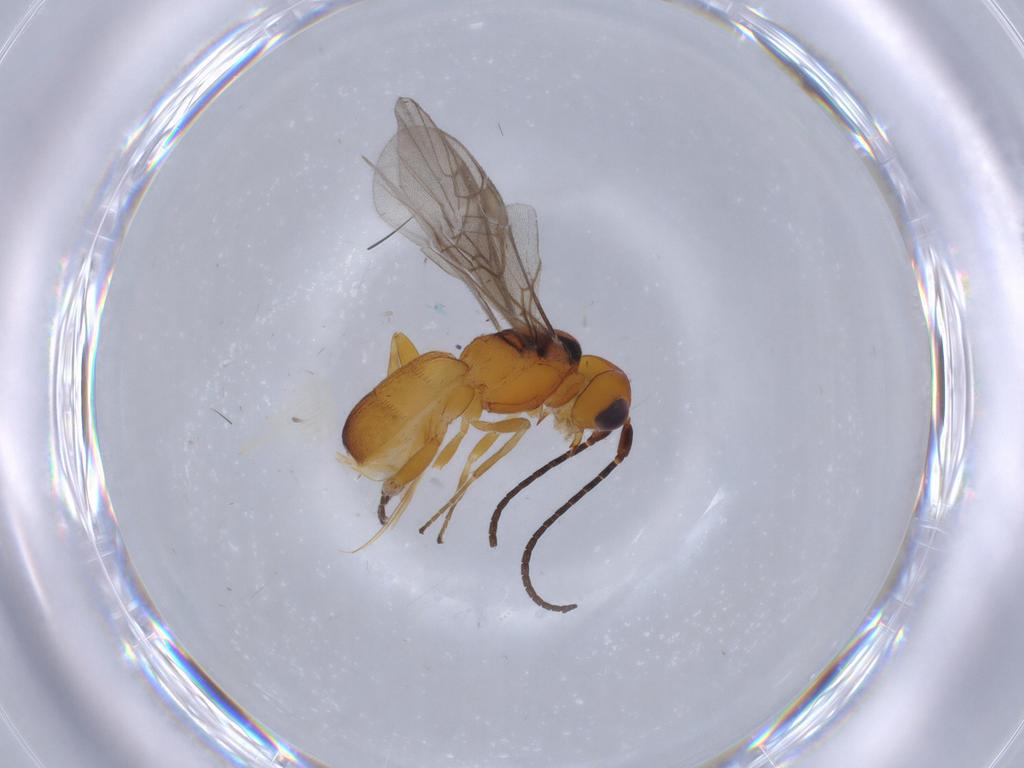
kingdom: Animalia
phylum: Arthropoda
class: Insecta
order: Hymenoptera
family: Braconidae
